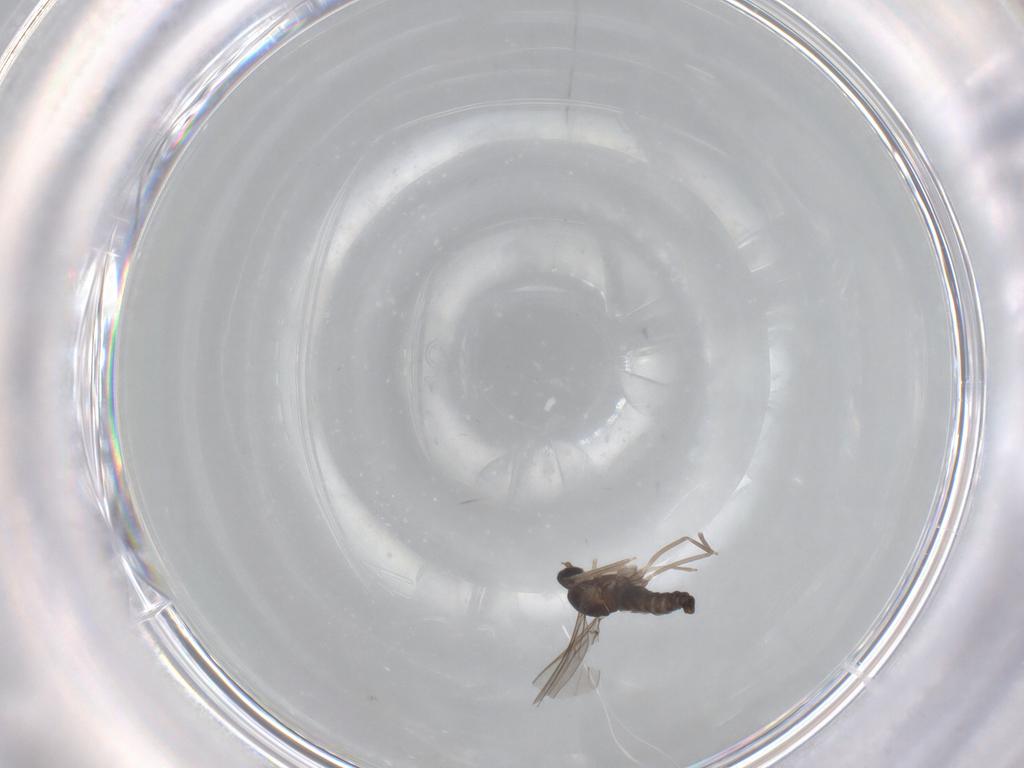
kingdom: Animalia
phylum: Arthropoda
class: Insecta
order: Diptera
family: Cecidomyiidae
